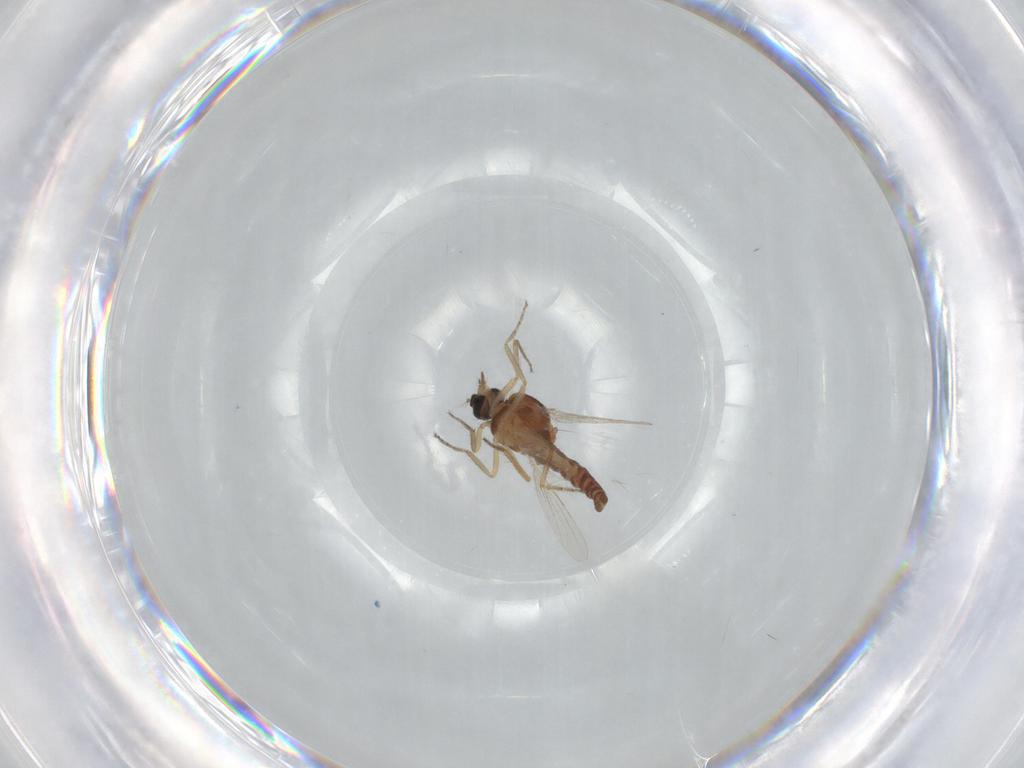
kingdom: Animalia
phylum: Arthropoda
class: Insecta
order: Diptera
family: Ceratopogonidae
